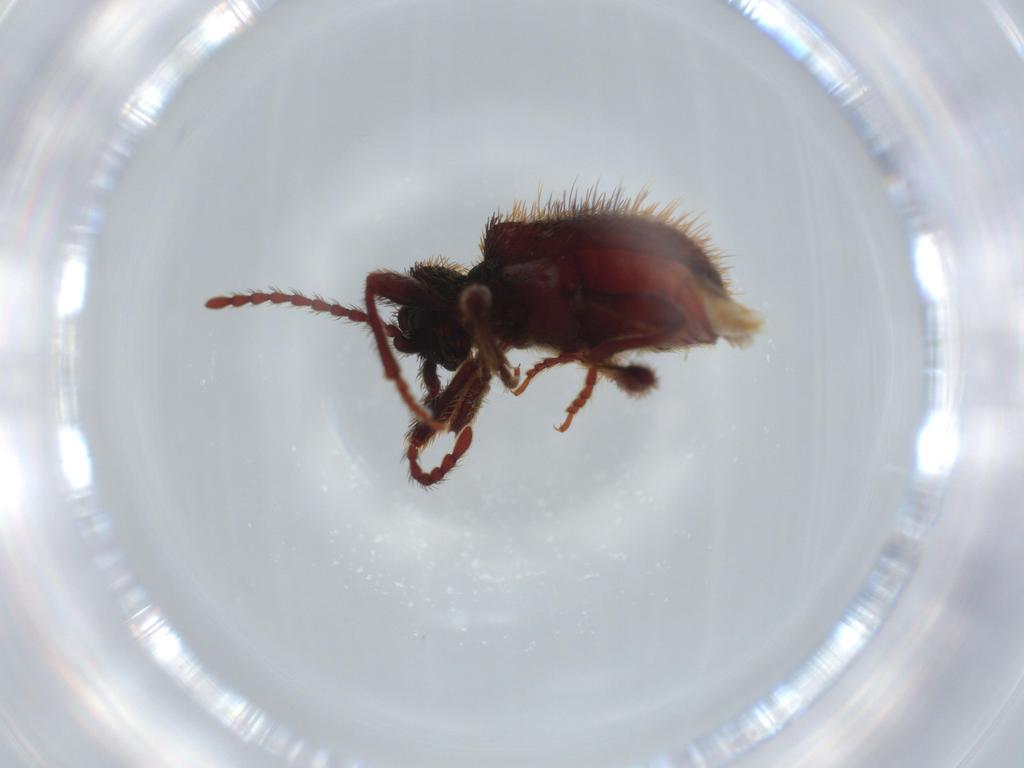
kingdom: Animalia
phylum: Arthropoda
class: Insecta
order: Coleoptera
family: Ptinidae
